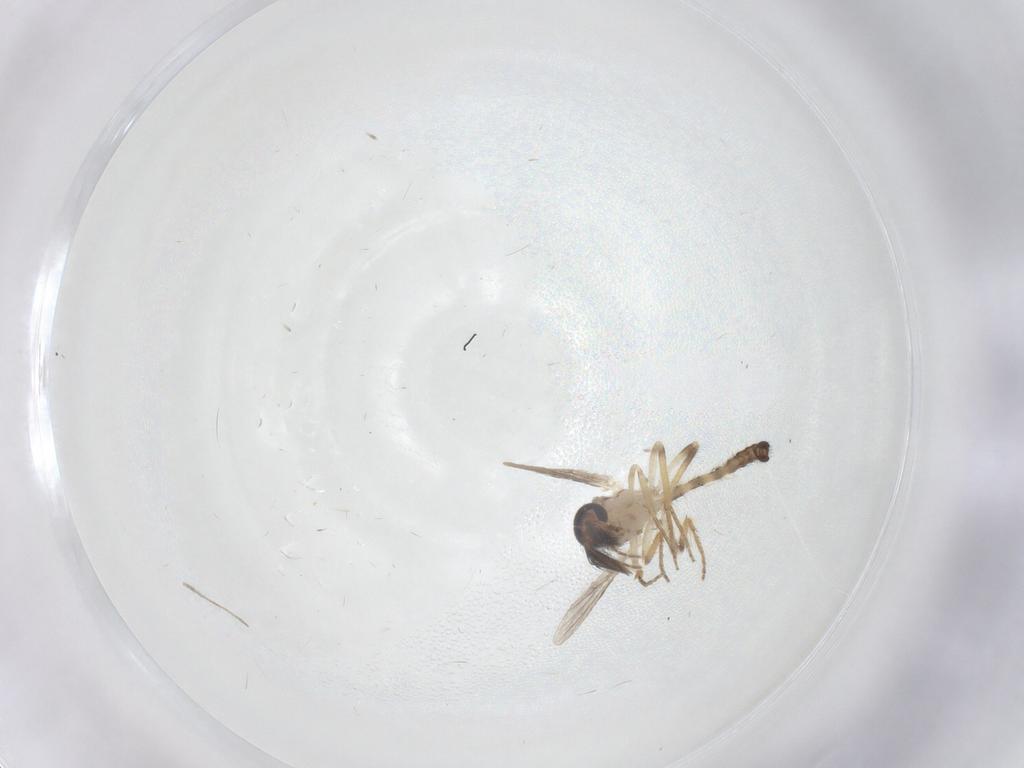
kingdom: Animalia
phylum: Arthropoda
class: Insecta
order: Diptera
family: Ceratopogonidae
